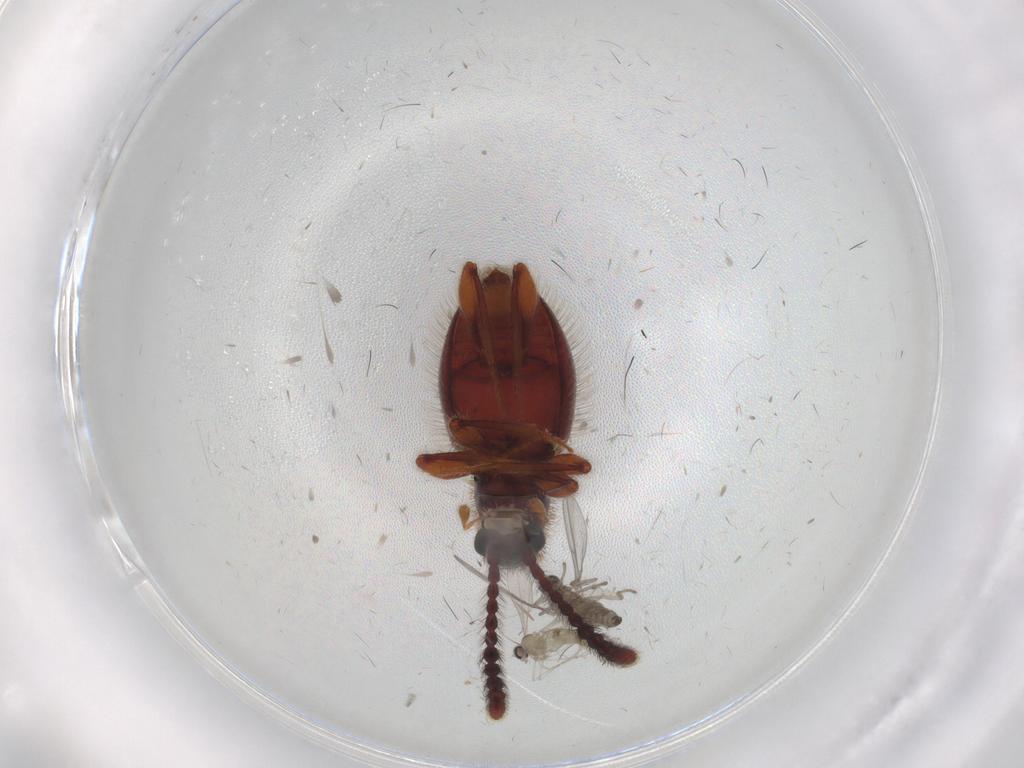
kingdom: Animalia
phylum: Arthropoda
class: Insecta
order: Diptera
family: Cecidomyiidae
